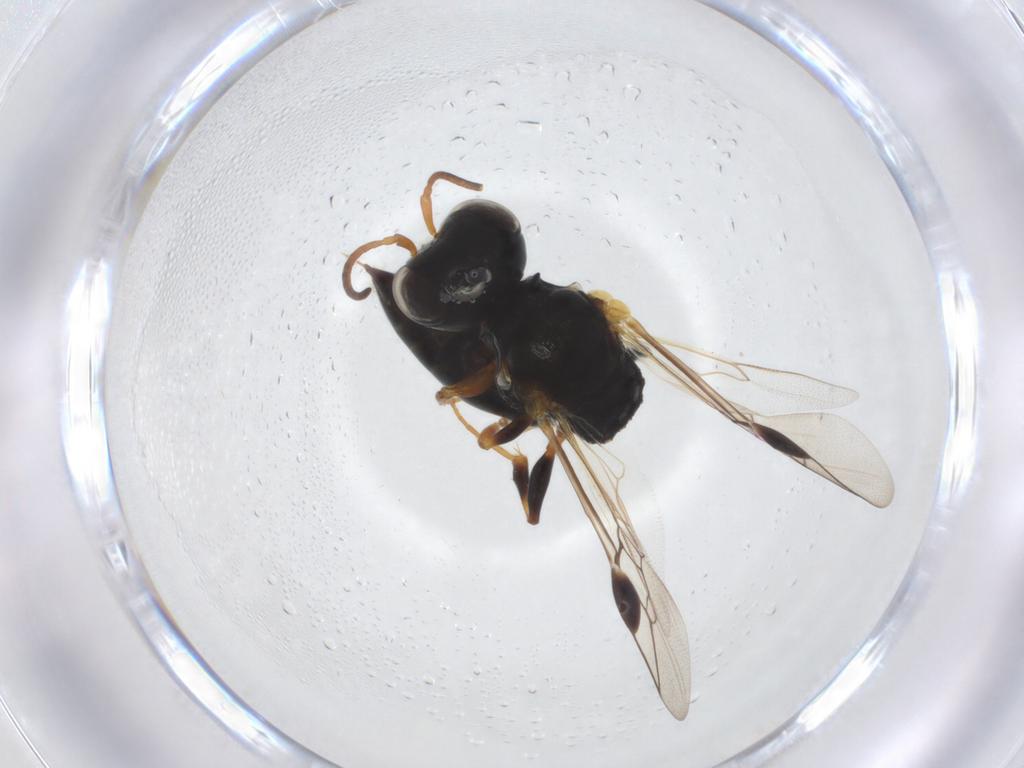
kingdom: Animalia
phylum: Arthropoda
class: Insecta
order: Hymenoptera
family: Pemphredonidae
